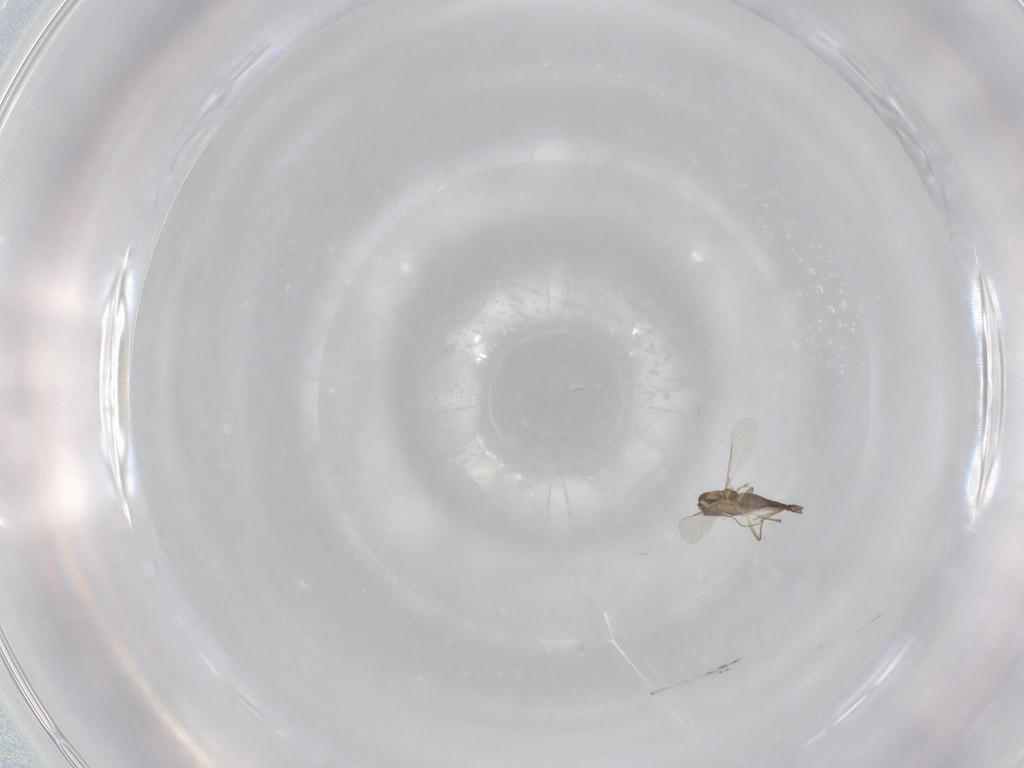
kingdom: Animalia
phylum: Arthropoda
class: Insecta
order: Diptera
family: Chironomidae
